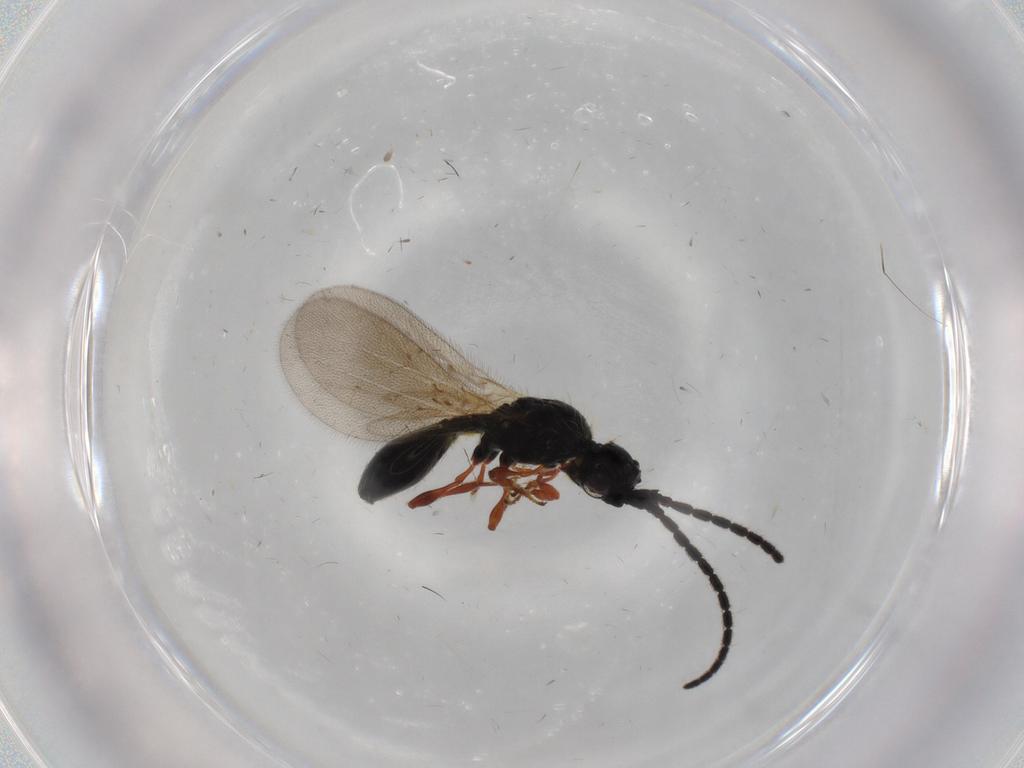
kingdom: Animalia
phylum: Arthropoda
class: Insecta
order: Hymenoptera
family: Diapriidae
